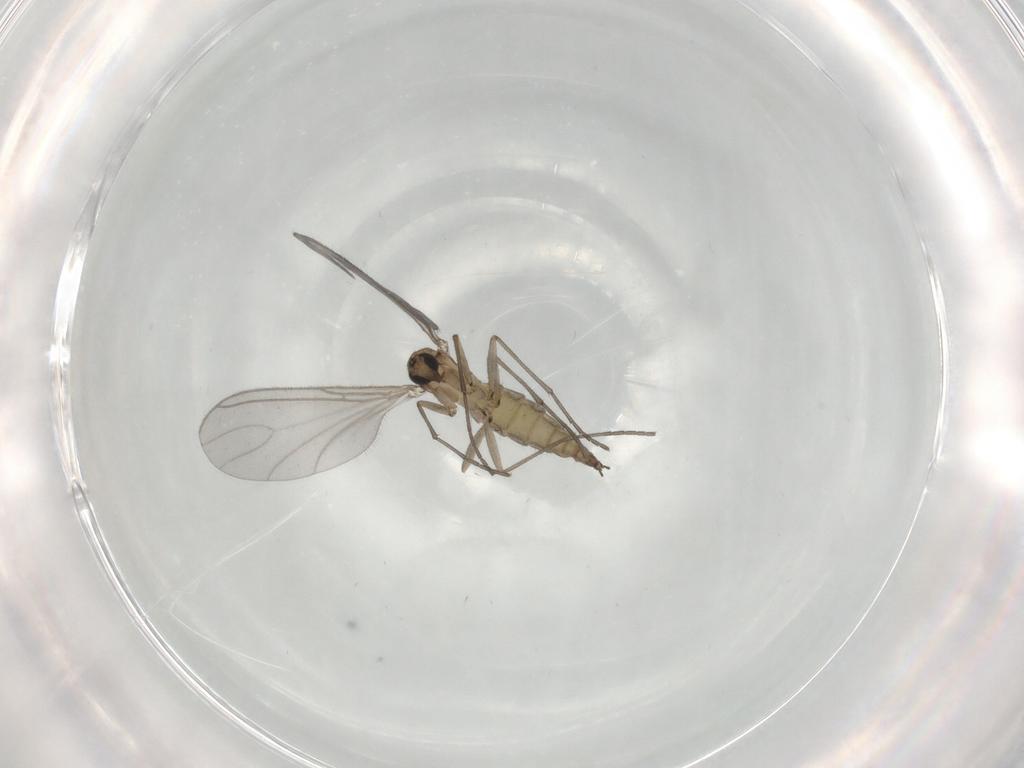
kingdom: Animalia
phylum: Arthropoda
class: Insecta
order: Diptera
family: Sciaridae
